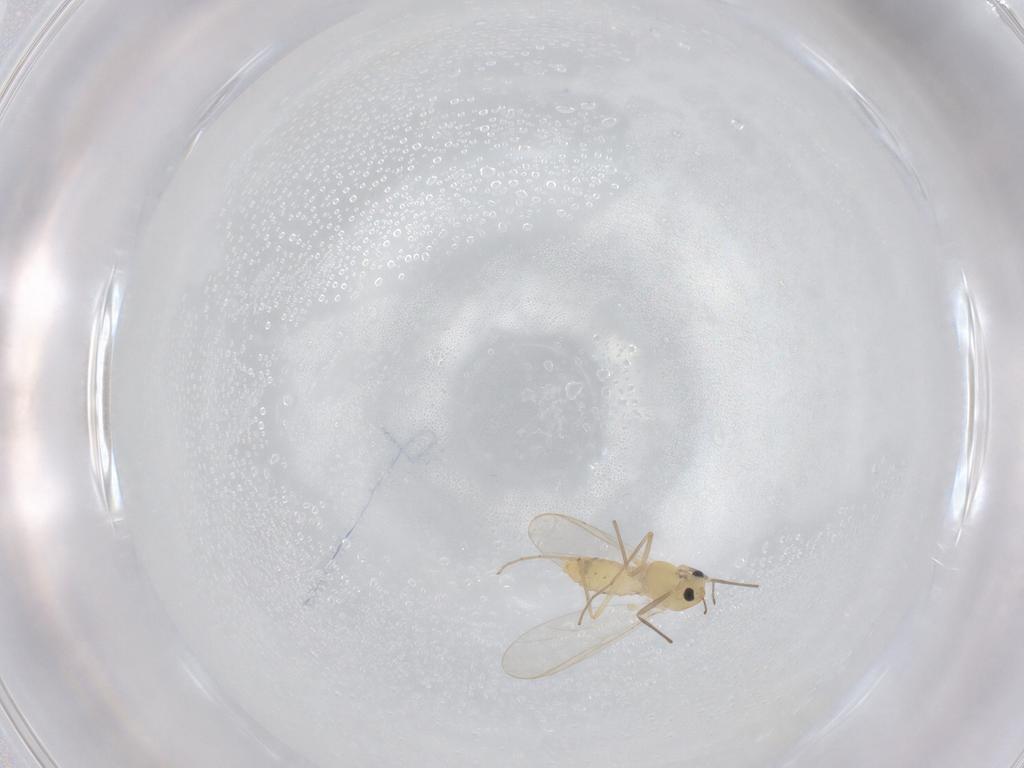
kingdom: Animalia
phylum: Arthropoda
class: Insecta
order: Diptera
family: Chironomidae
